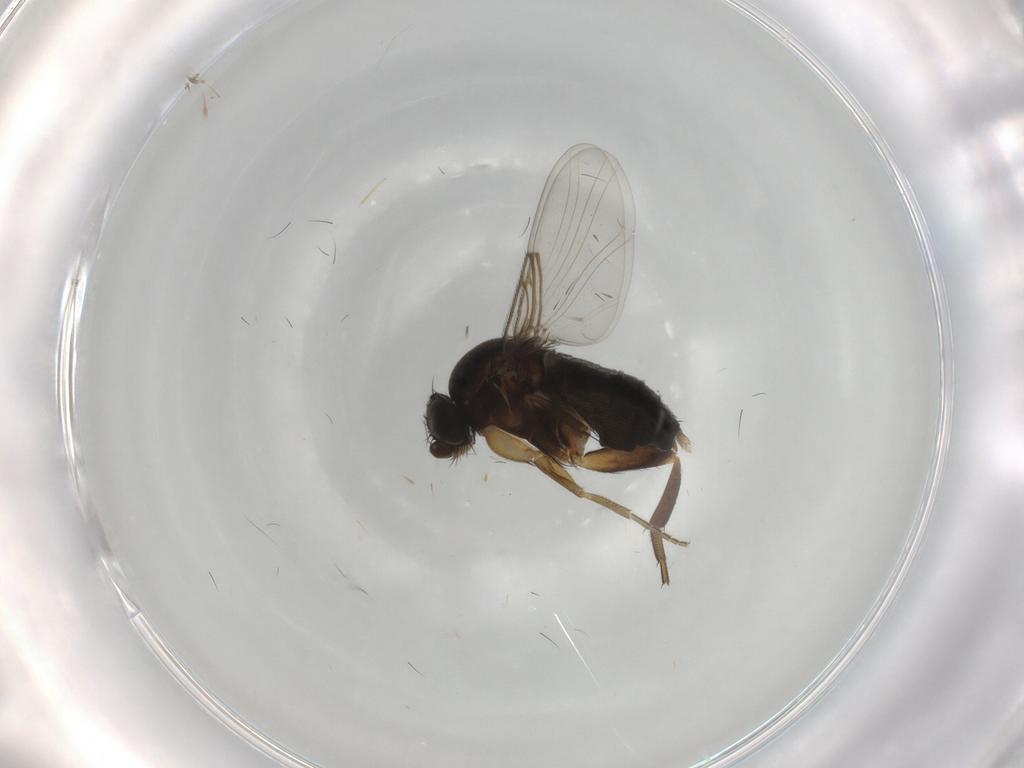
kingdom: Animalia
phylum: Arthropoda
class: Insecta
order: Diptera
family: Phoridae
